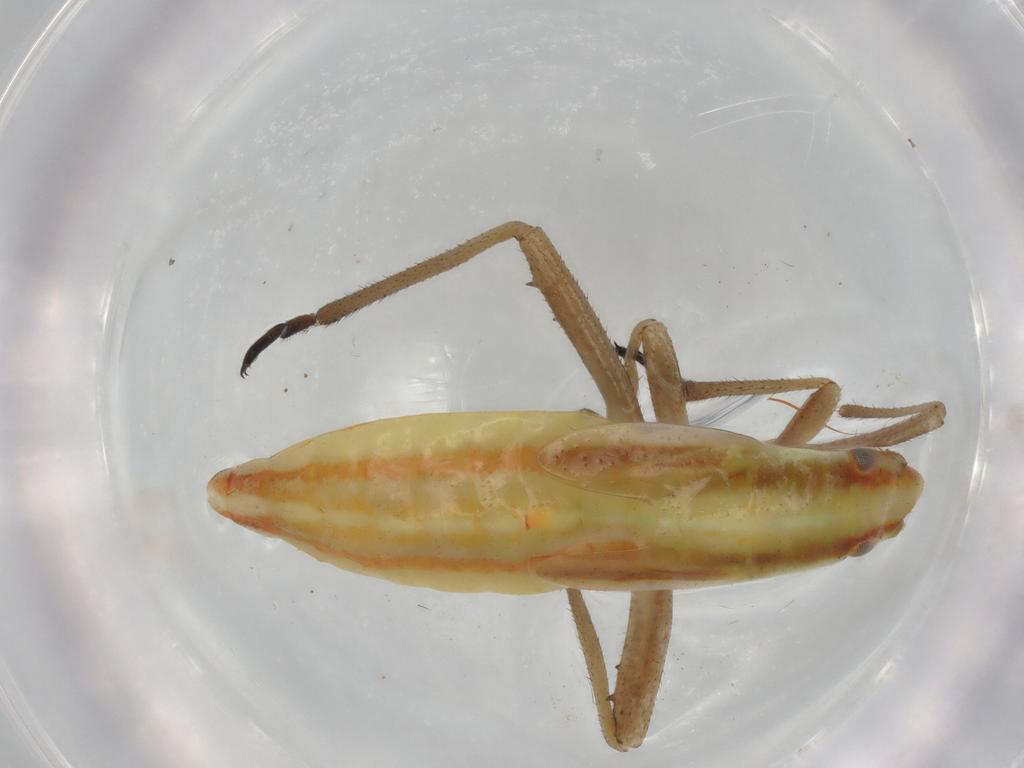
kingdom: Animalia
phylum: Arthropoda
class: Insecta
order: Hemiptera
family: Miridae
